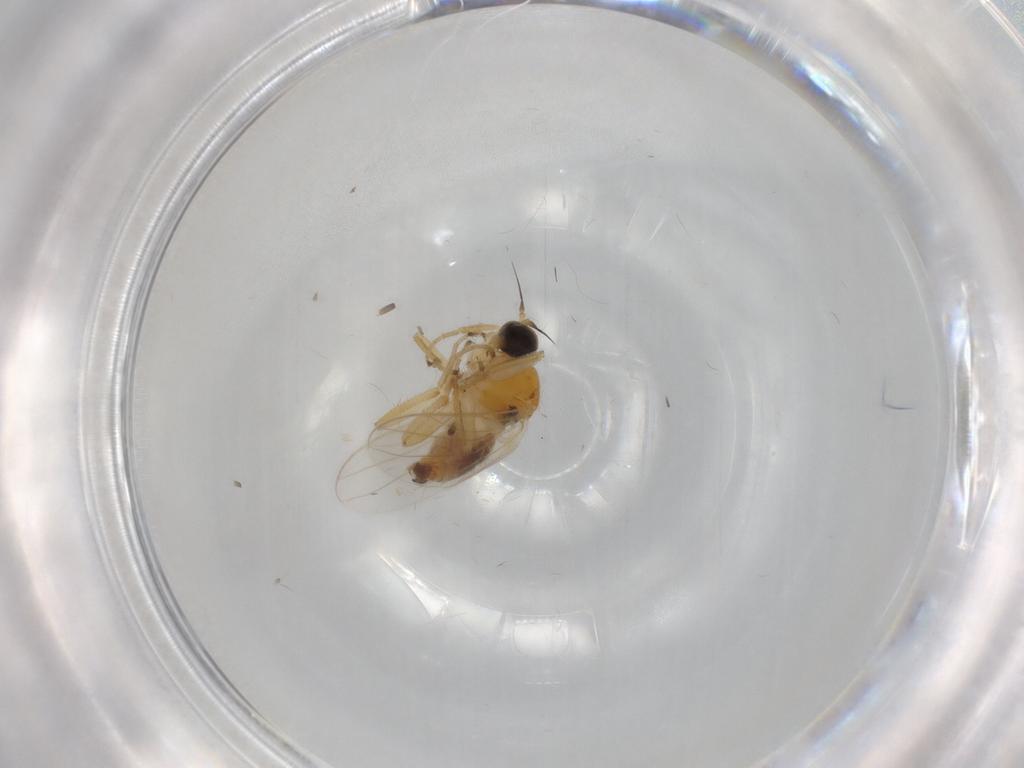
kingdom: Animalia
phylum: Arthropoda
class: Insecta
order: Diptera
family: Hybotidae
